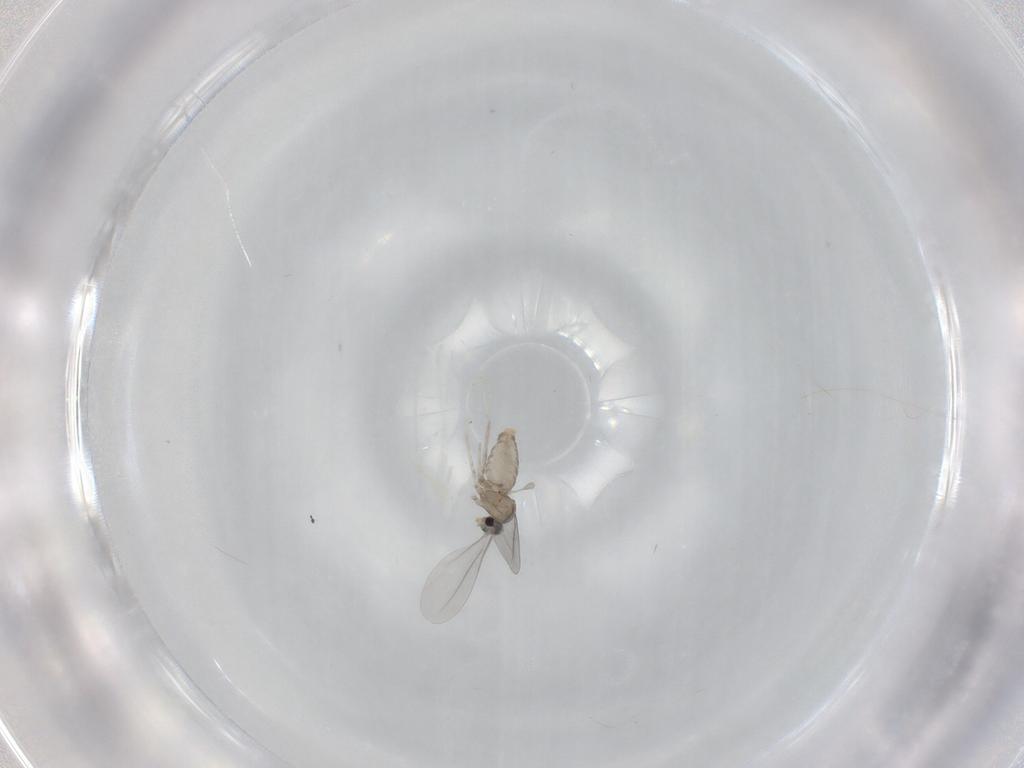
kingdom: Animalia
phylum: Arthropoda
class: Insecta
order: Diptera
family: Cecidomyiidae
